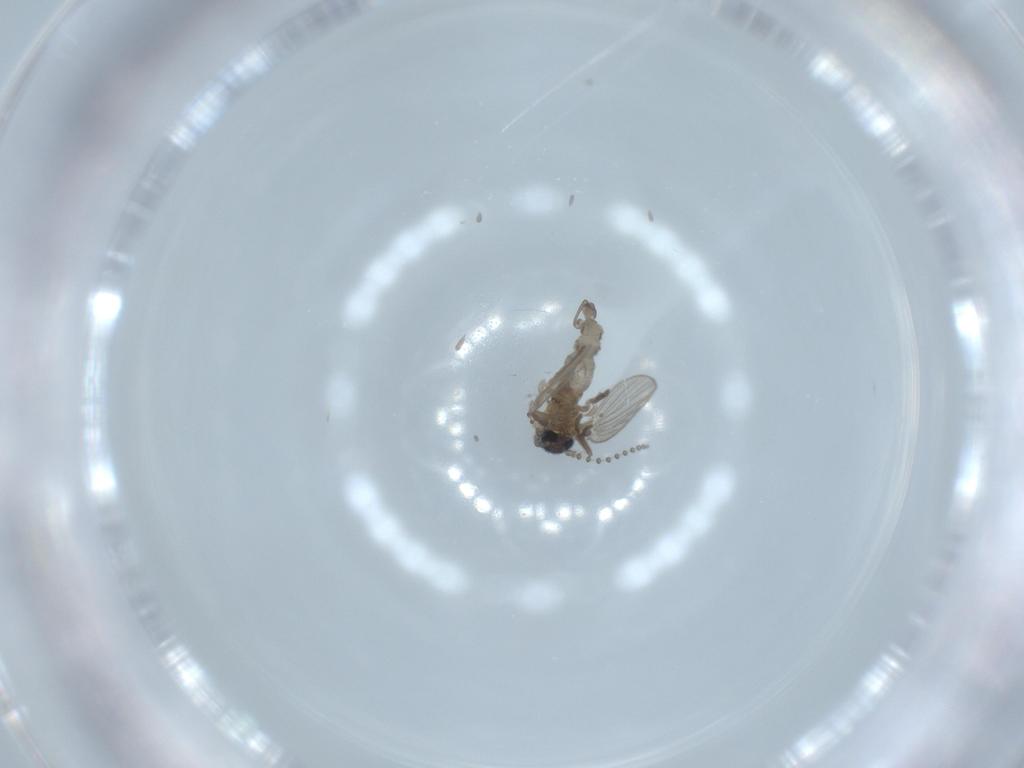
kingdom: Animalia
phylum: Arthropoda
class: Insecta
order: Diptera
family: Psychodidae
